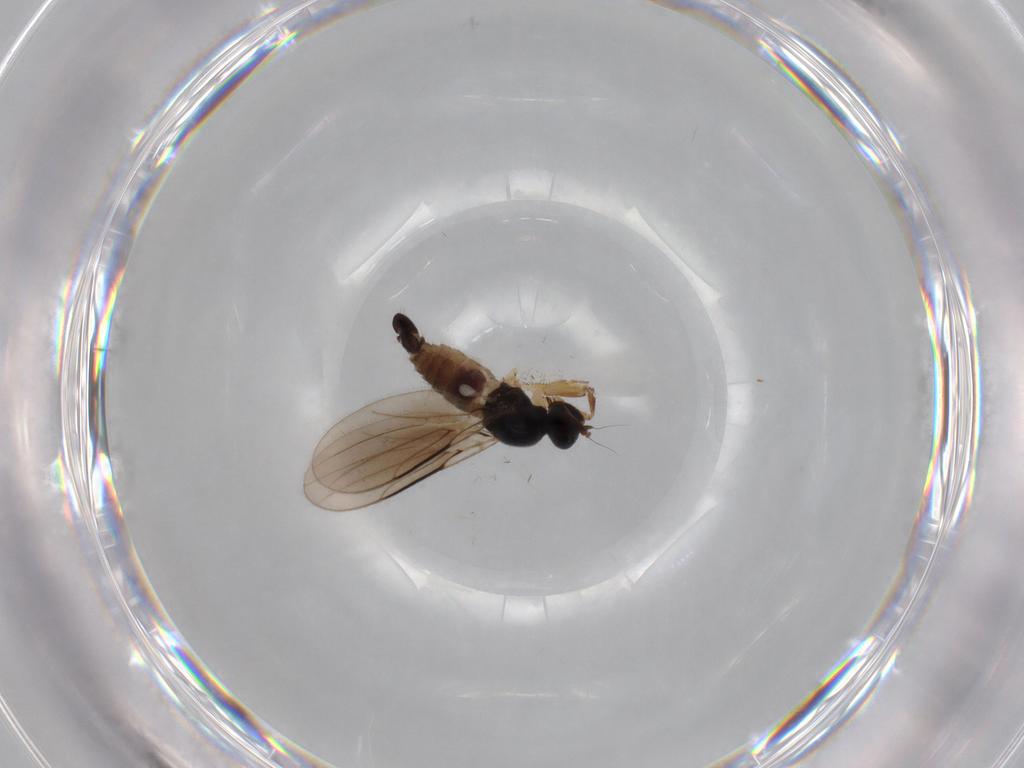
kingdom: Animalia
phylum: Arthropoda
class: Insecta
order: Diptera
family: Hybotidae
